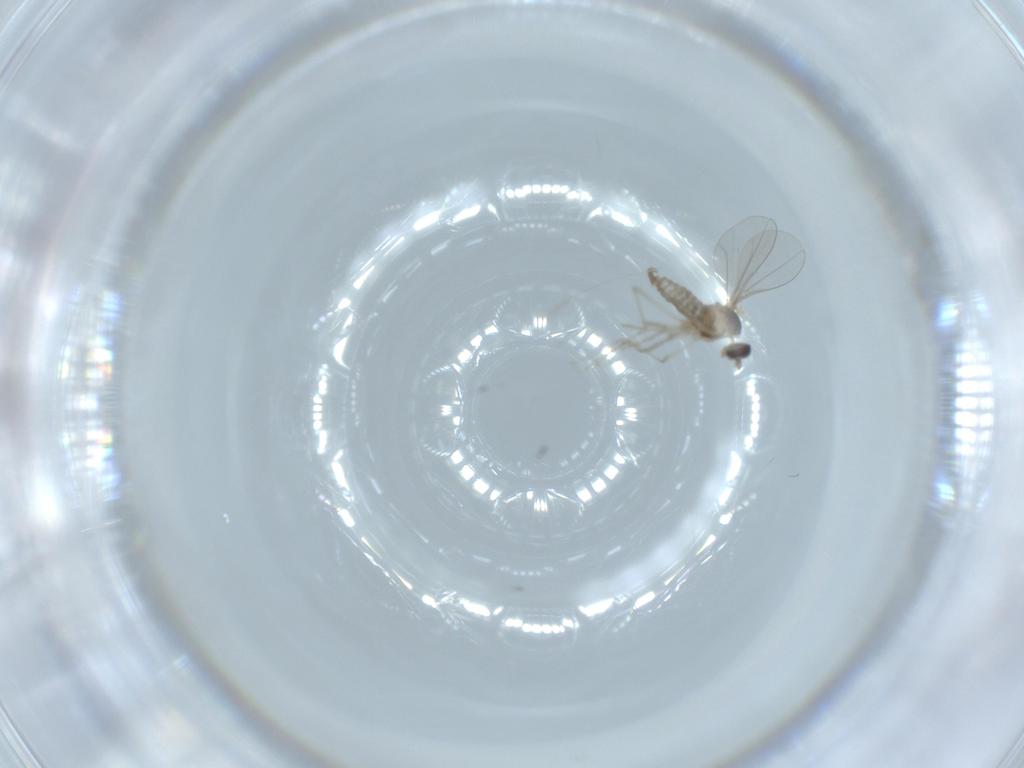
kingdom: Animalia
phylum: Arthropoda
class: Insecta
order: Diptera
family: Cecidomyiidae
